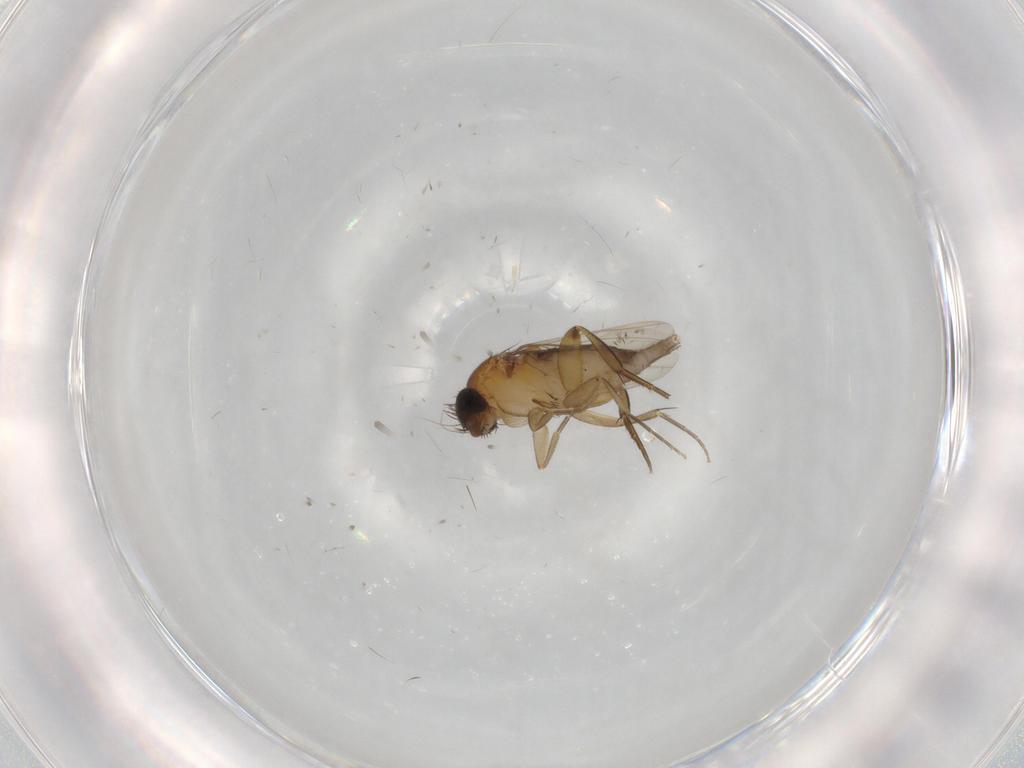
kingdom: Animalia
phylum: Arthropoda
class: Insecta
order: Diptera
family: Phoridae
